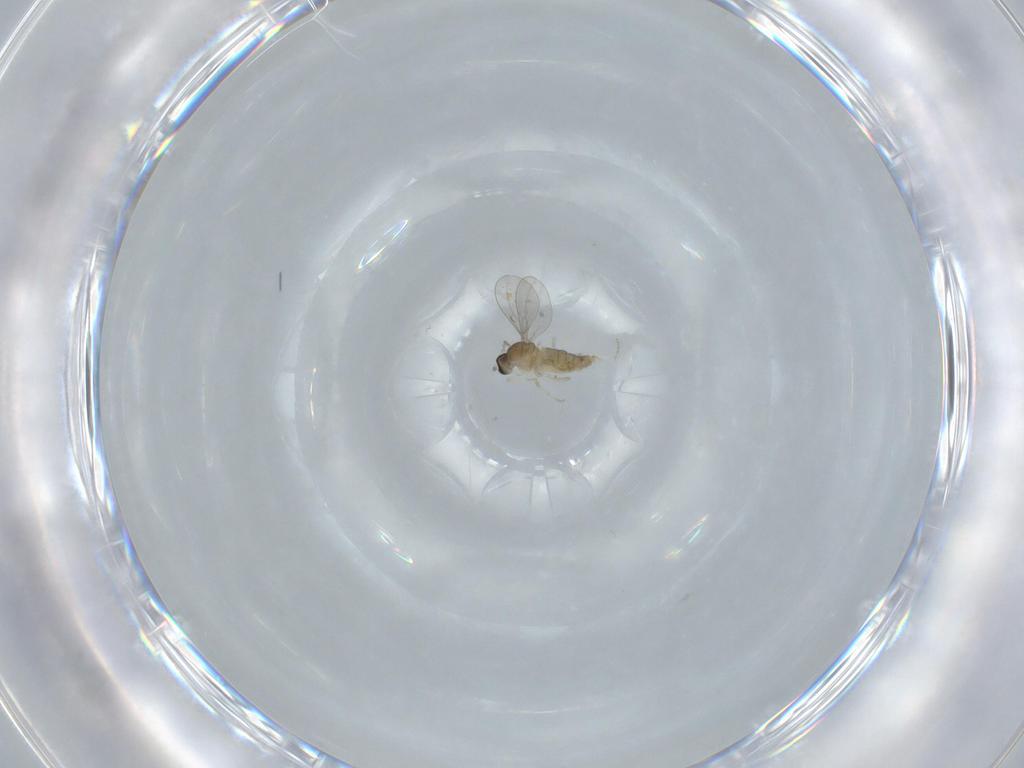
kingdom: Animalia
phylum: Arthropoda
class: Insecta
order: Diptera
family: Cecidomyiidae
